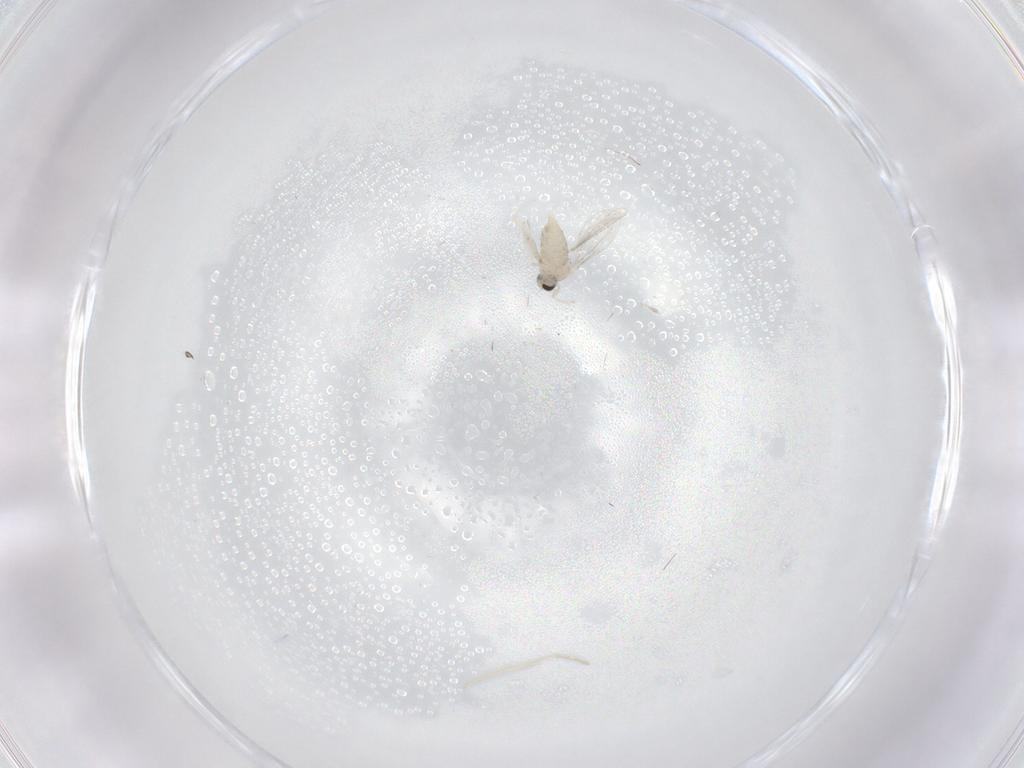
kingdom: Animalia
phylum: Arthropoda
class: Insecta
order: Diptera
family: Cecidomyiidae
